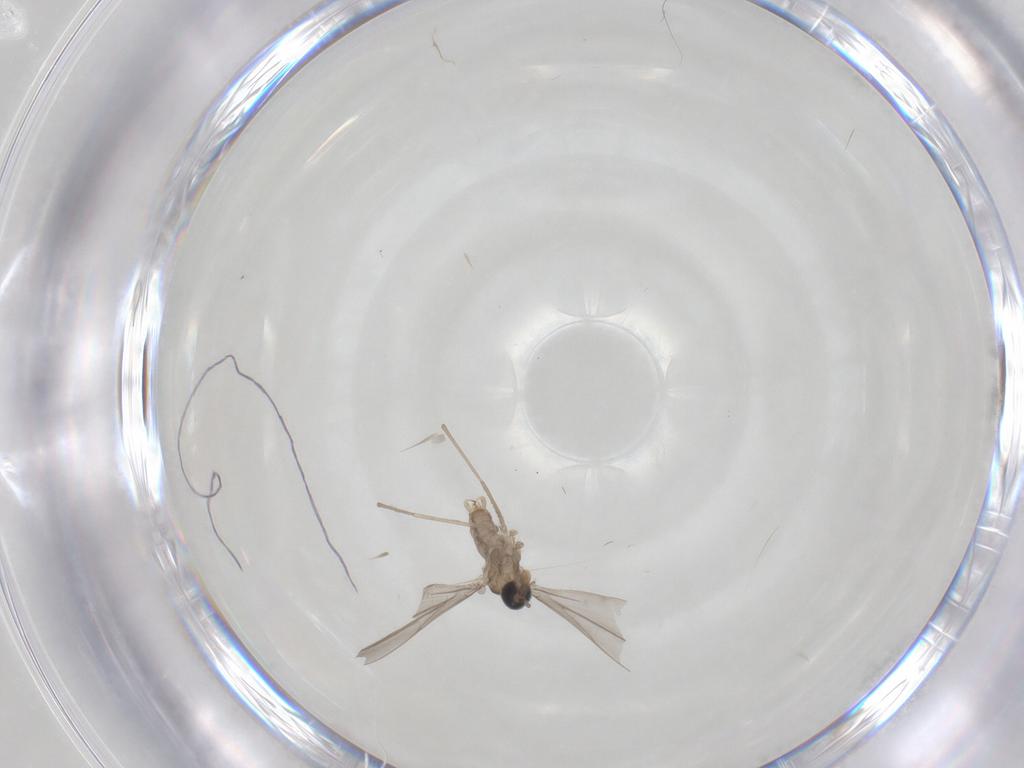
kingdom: Animalia
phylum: Arthropoda
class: Insecta
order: Diptera
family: Cecidomyiidae
